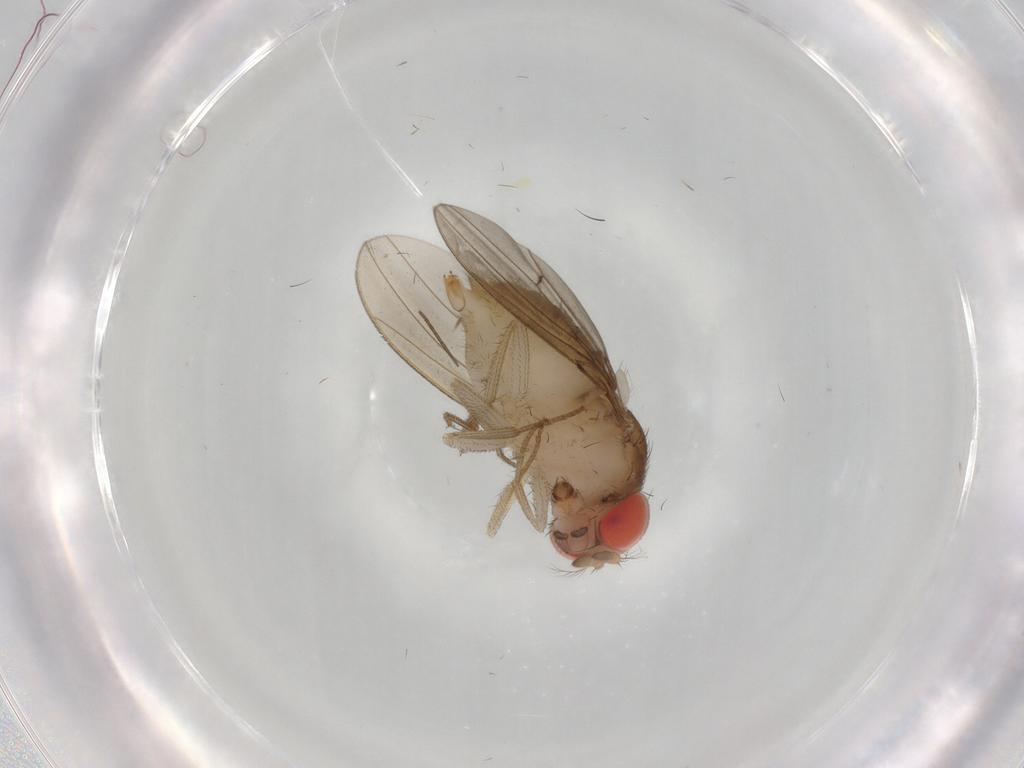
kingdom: Animalia
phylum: Arthropoda
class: Insecta
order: Diptera
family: Drosophilidae
